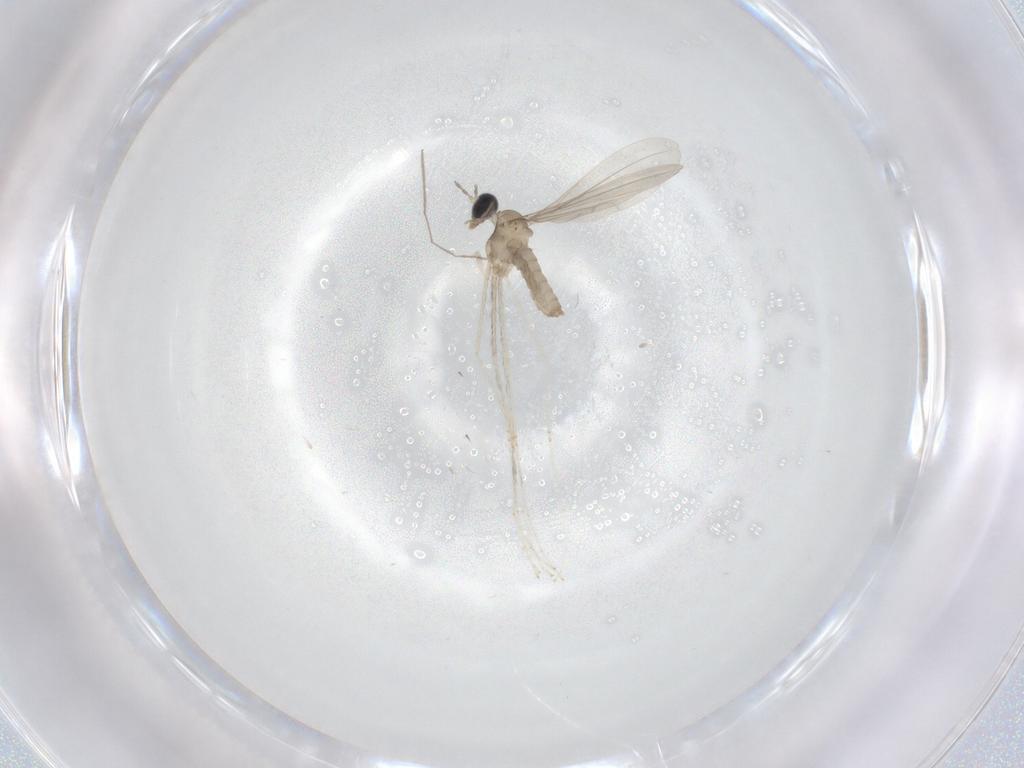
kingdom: Animalia
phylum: Arthropoda
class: Insecta
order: Diptera
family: Cecidomyiidae
